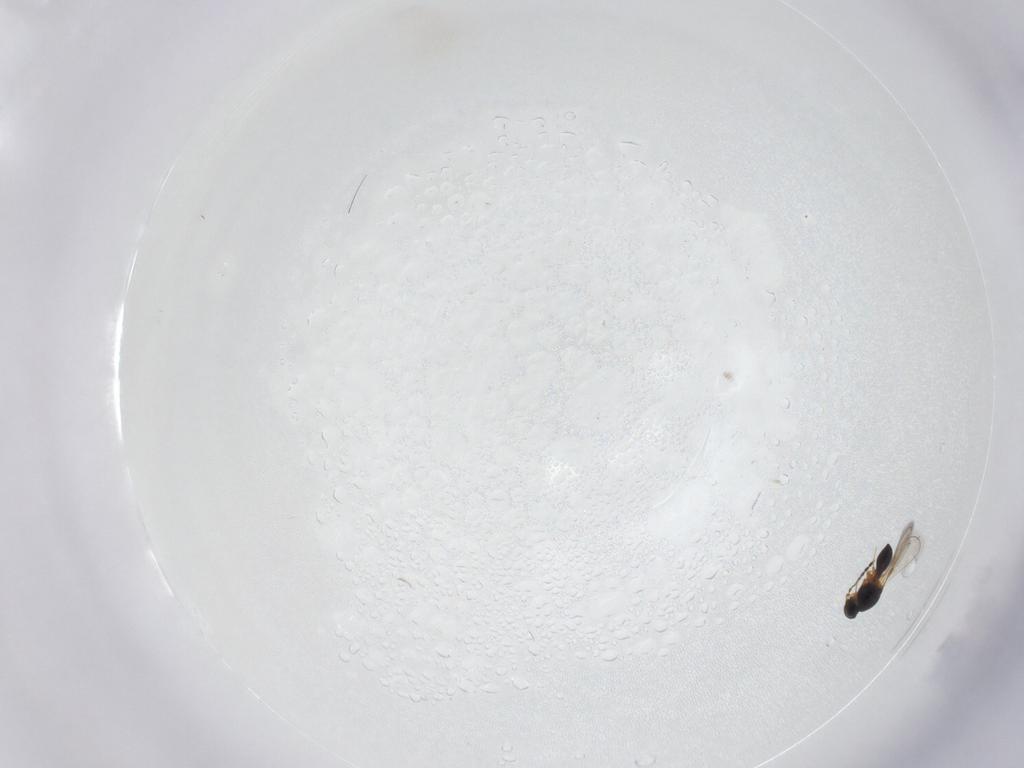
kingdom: Animalia
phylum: Arthropoda
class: Insecta
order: Hymenoptera
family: Platygastridae
